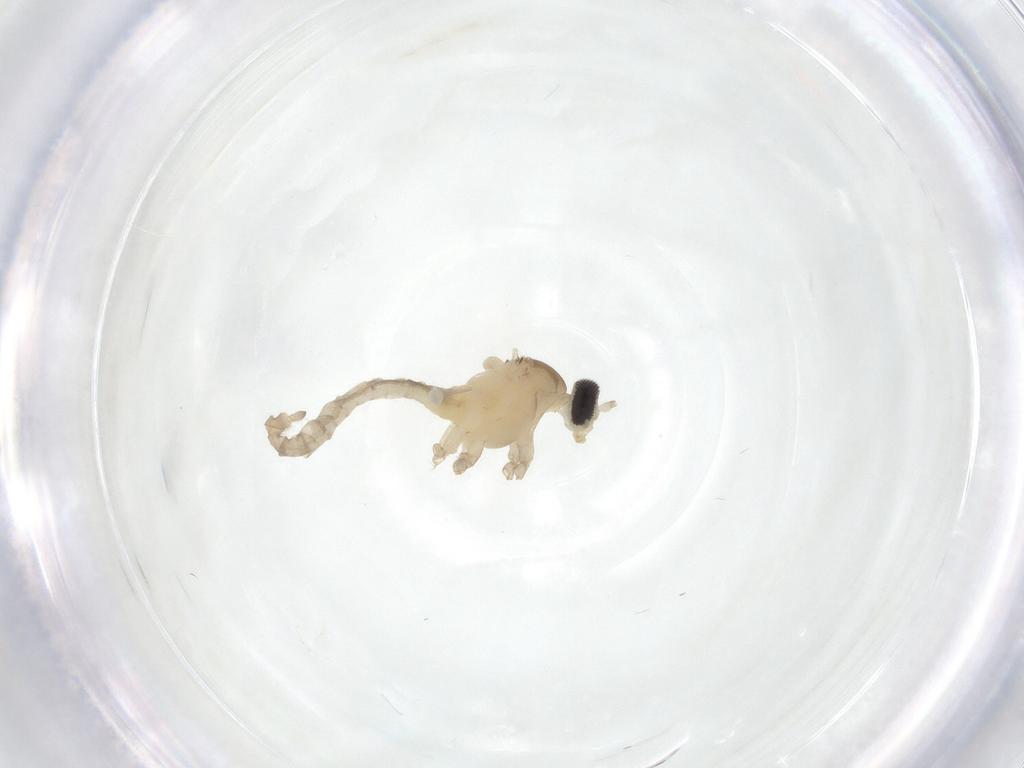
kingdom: Animalia
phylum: Arthropoda
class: Insecta
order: Diptera
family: Cecidomyiidae
